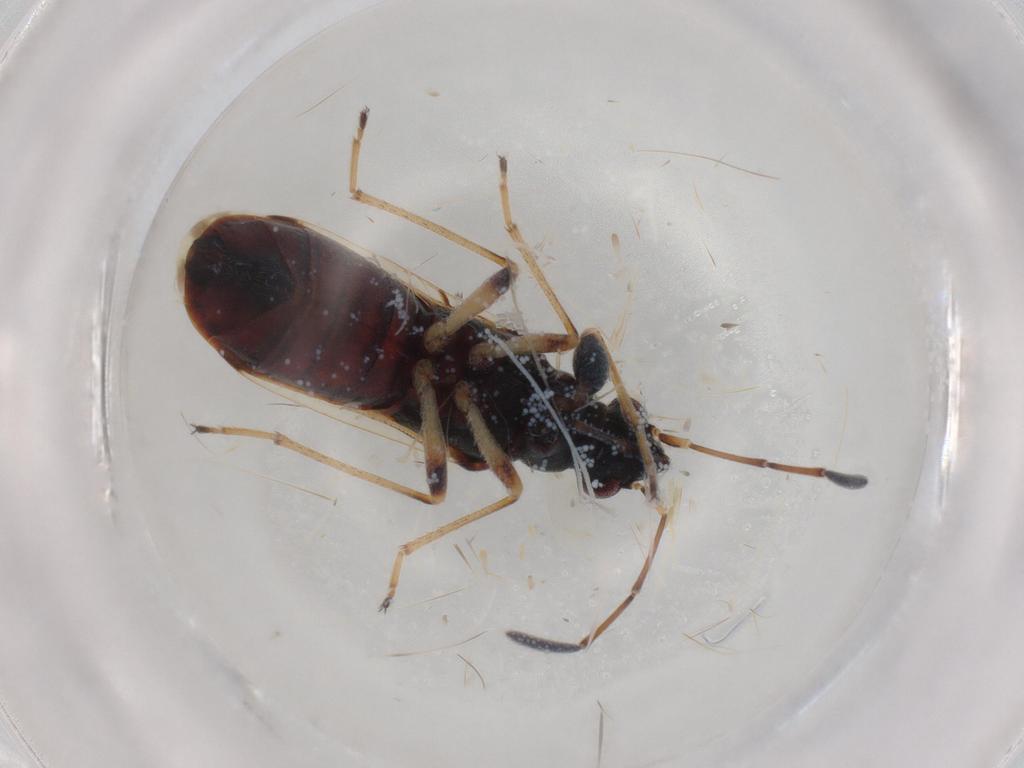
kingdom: Animalia
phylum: Arthropoda
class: Insecta
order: Hemiptera
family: Rhyparochromidae
